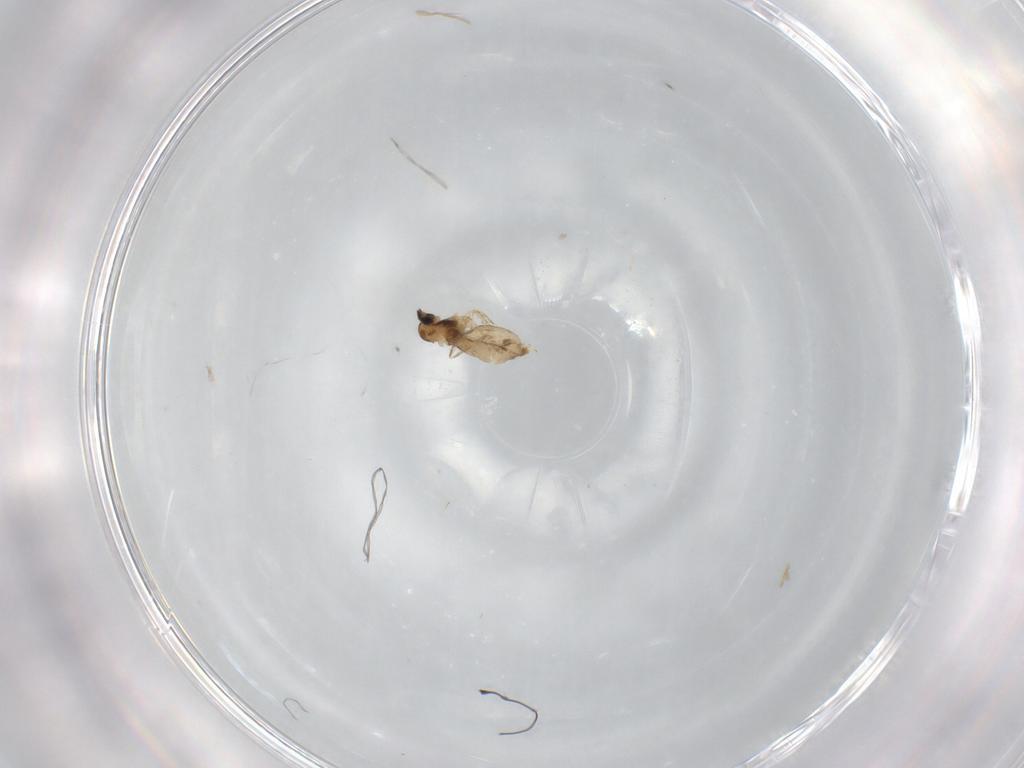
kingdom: Animalia
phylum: Arthropoda
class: Insecta
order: Diptera
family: Cecidomyiidae
